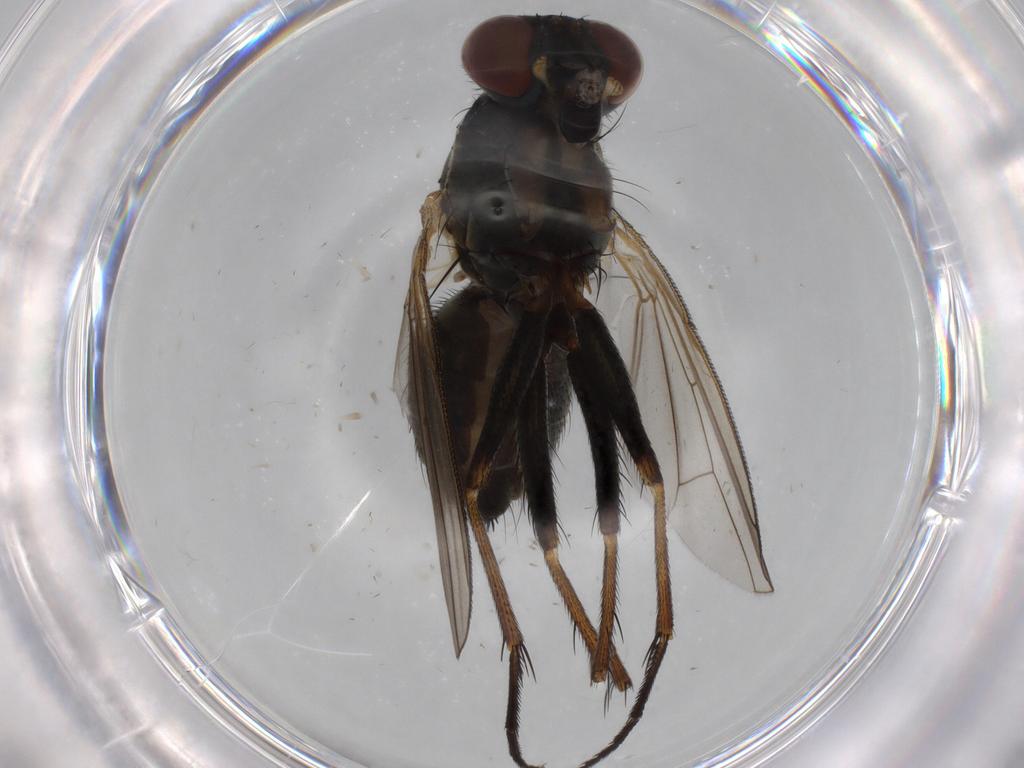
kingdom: Animalia
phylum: Arthropoda
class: Insecta
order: Diptera
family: Muscidae
